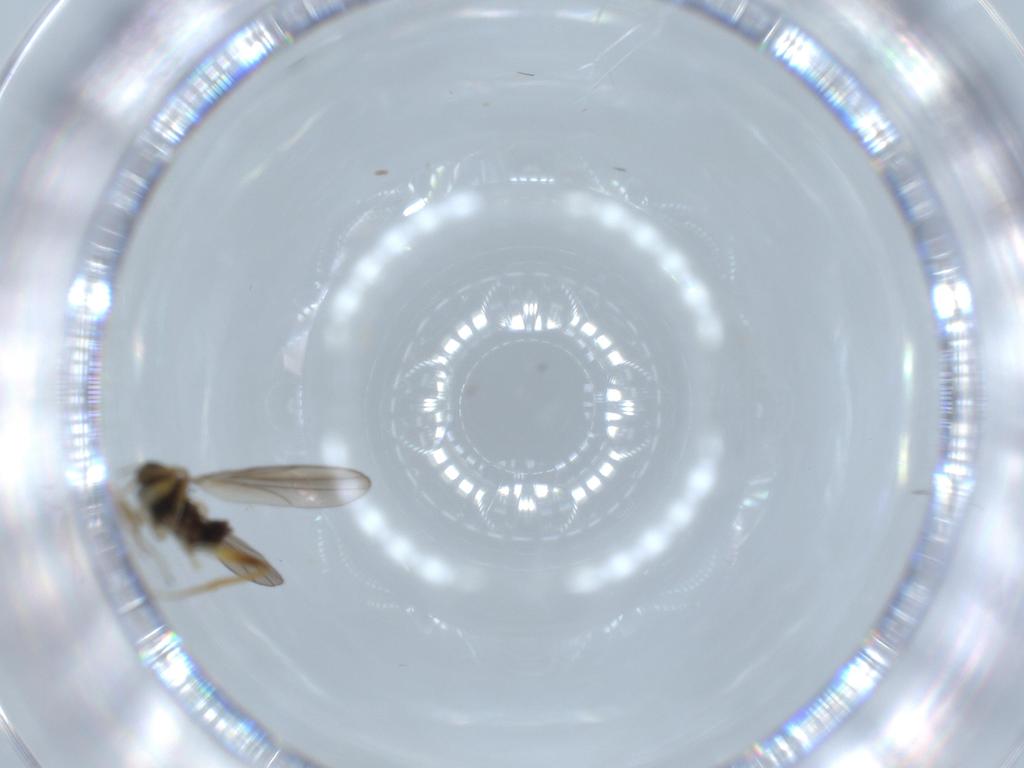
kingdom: Animalia
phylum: Arthropoda
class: Insecta
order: Diptera
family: Hybotidae
